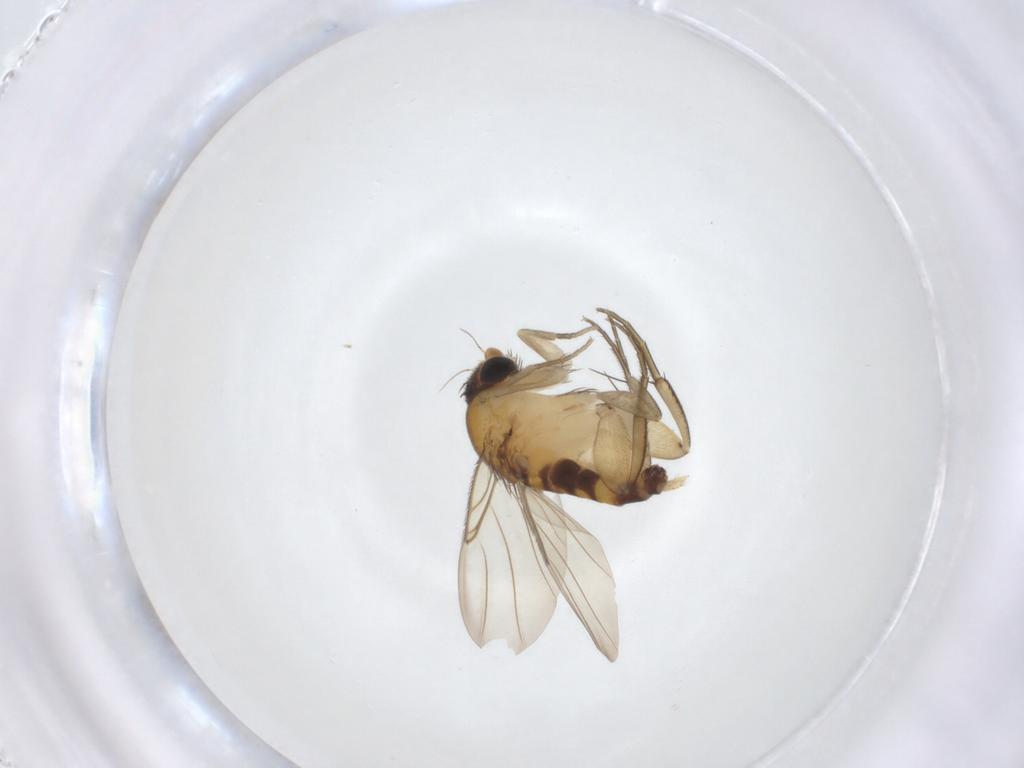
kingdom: Animalia
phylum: Arthropoda
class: Insecta
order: Diptera
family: Phoridae
